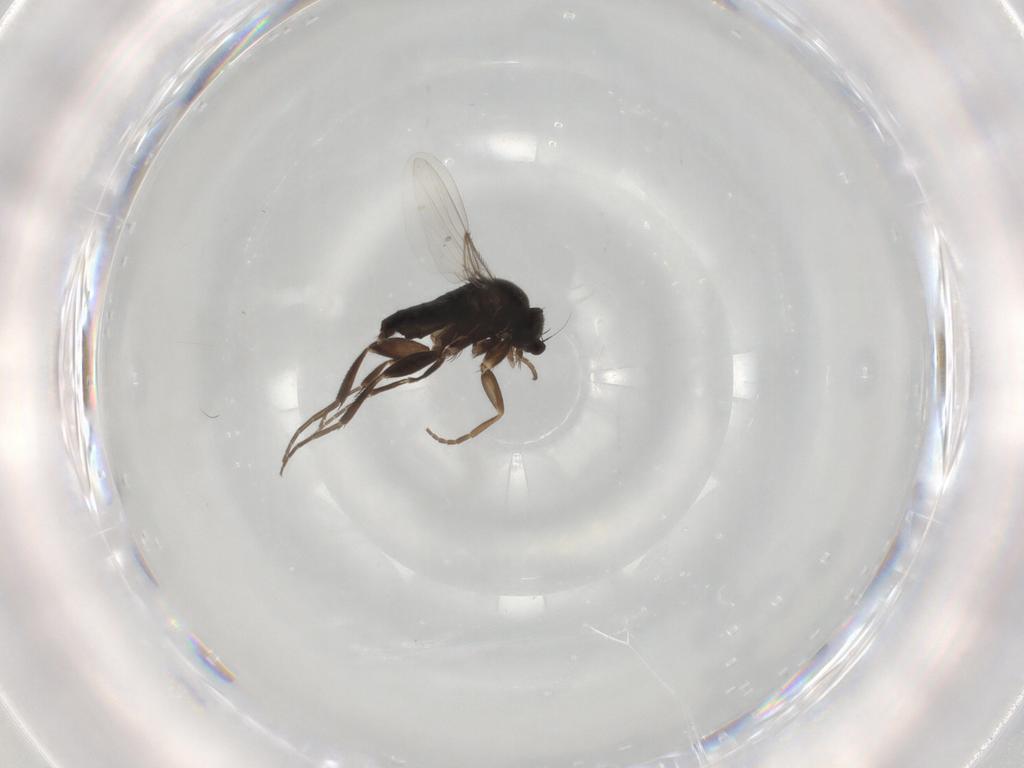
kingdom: Animalia
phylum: Arthropoda
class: Insecta
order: Diptera
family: Phoridae
